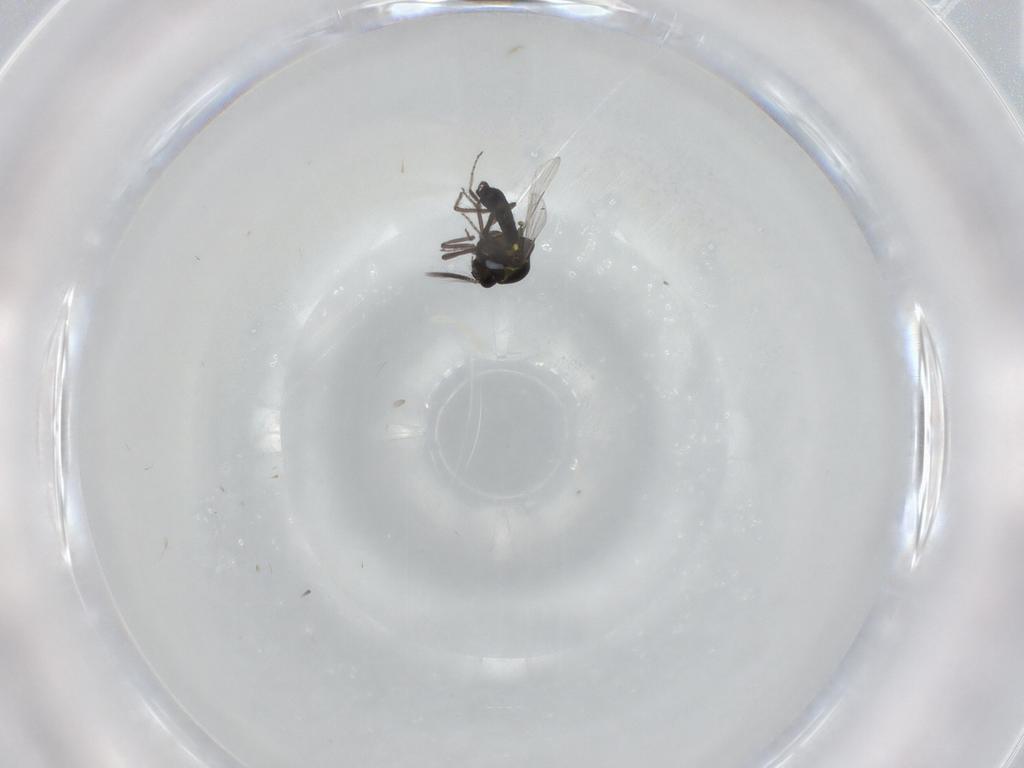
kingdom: Animalia
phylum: Arthropoda
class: Insecta
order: Diptera
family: Ceratopogonidae
